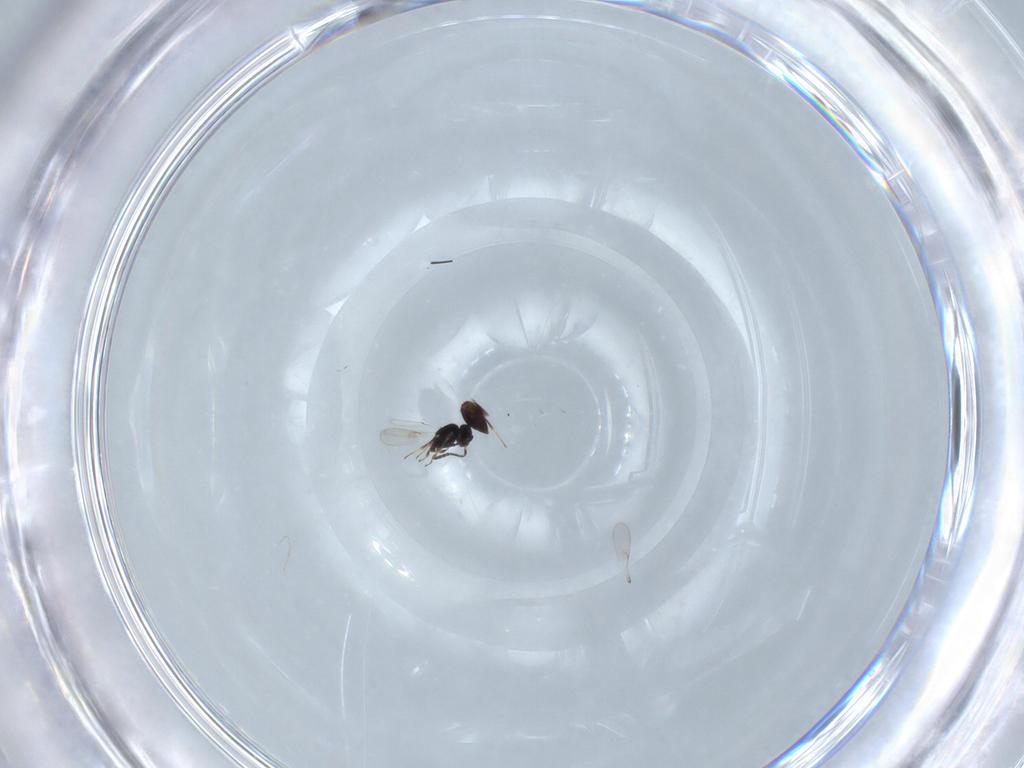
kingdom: Animalia
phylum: Arthropoda
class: Insecta
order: Hymenoptera
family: Scelionidae
